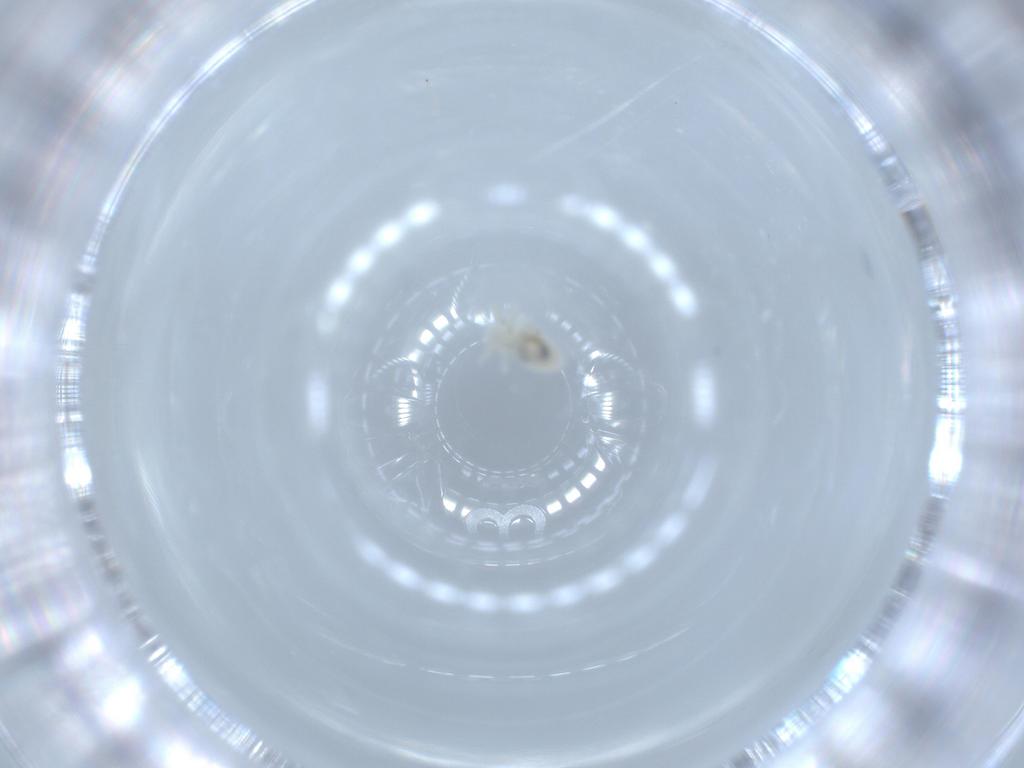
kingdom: Animalia
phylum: Arthropoda
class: Insecta
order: Psocodea
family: Caeciliusidae
